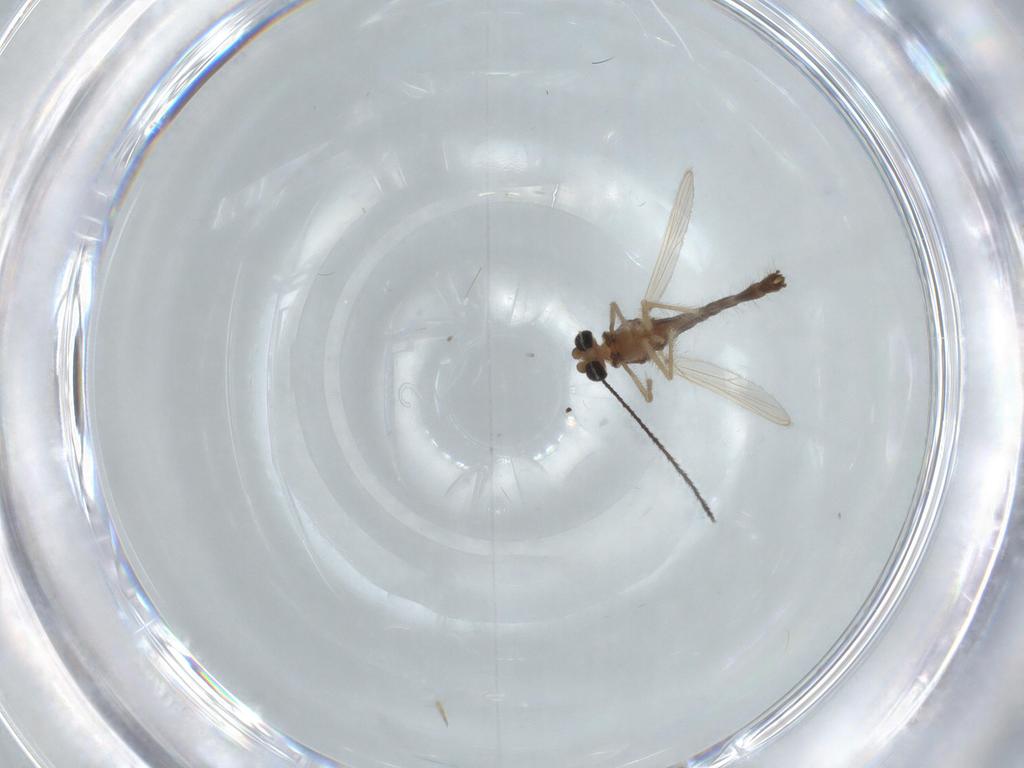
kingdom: Animalia
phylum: Arthropoda
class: Insecta
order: Diptera
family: Chironomidae
